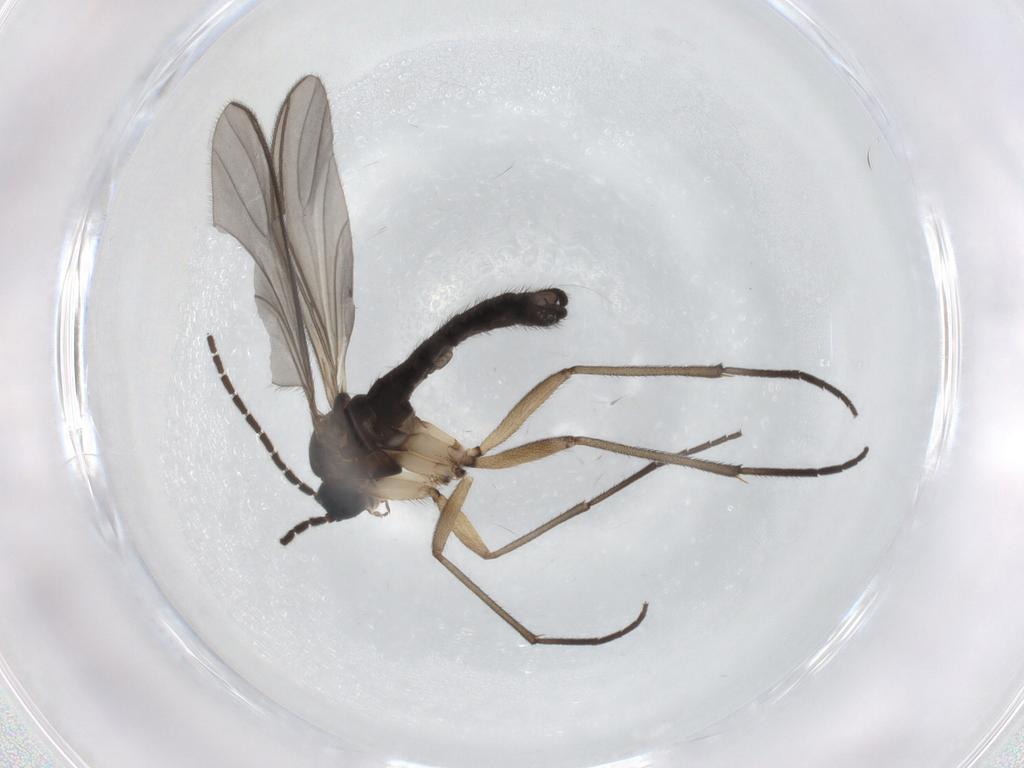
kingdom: Animalia
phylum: Arthropoda
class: Insecta
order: Diptera
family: Sciaridae
